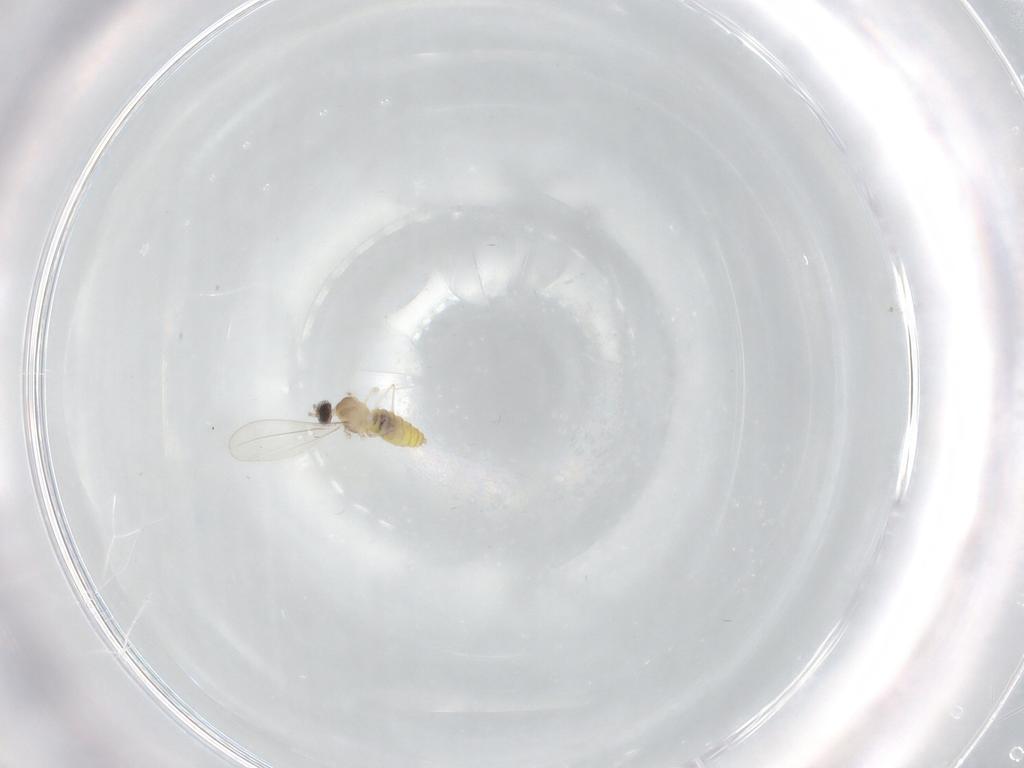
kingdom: Animalia
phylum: Arthropoda
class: Insecta
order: Diptera
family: Cecidomyiidae
